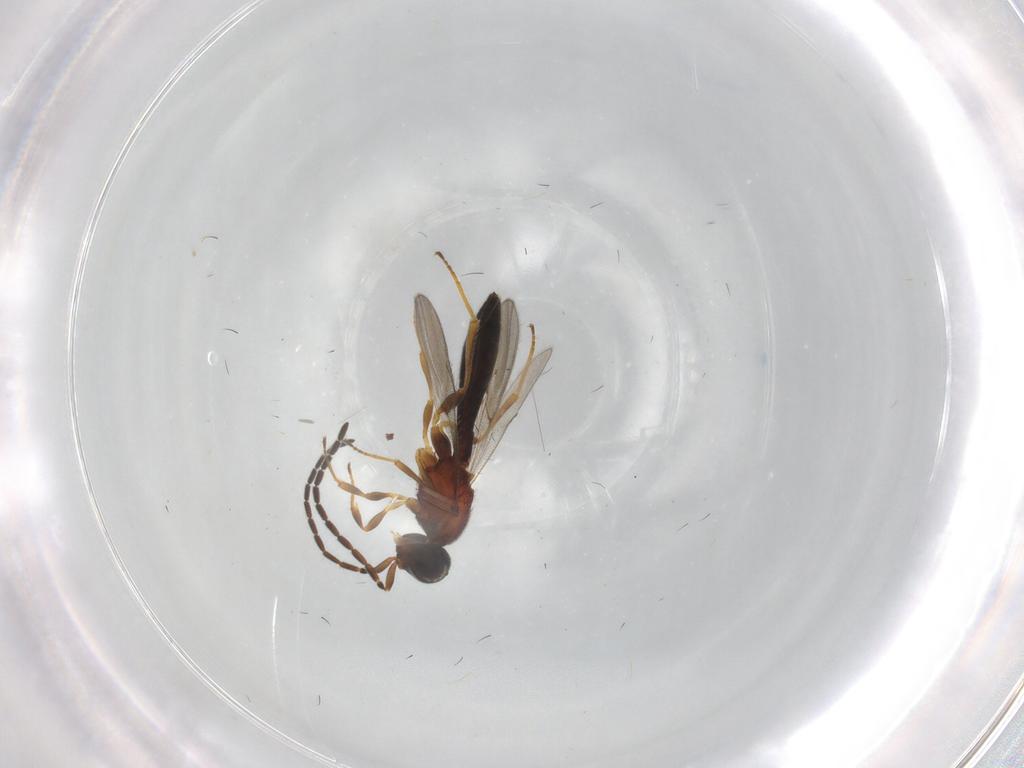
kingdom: Animalia
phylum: Arthropoda
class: Insecta
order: Hymenoptera
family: Scelionidae
